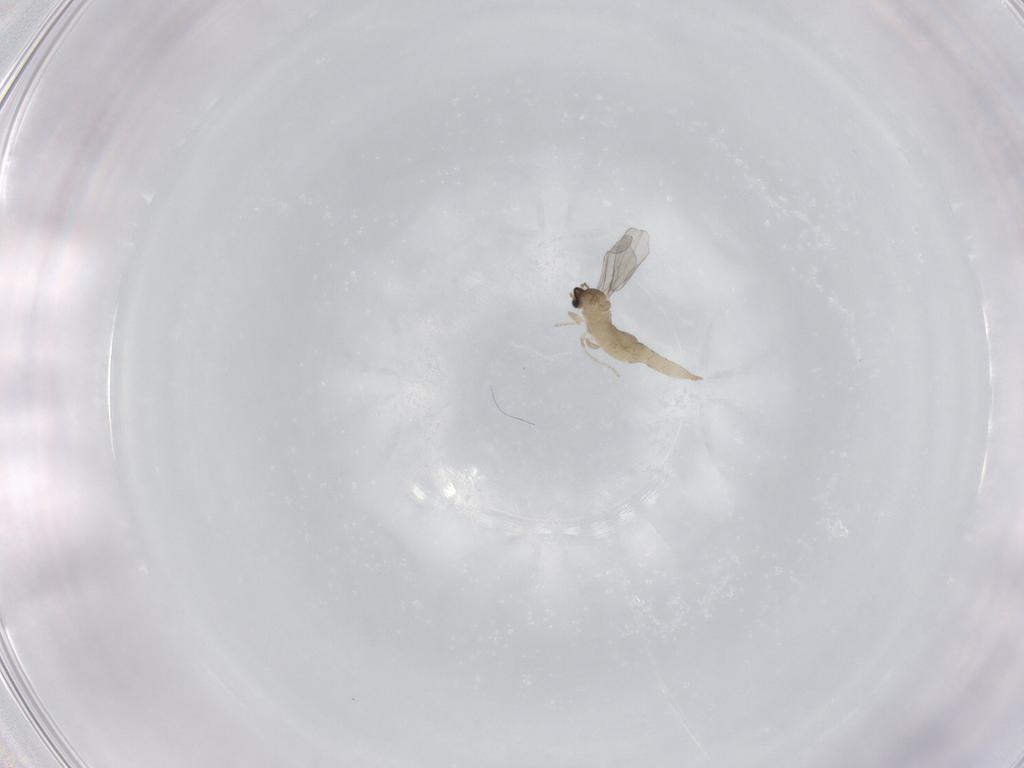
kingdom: Animalia
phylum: Arthropoda
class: Insecta
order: Diptera
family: Cecidomyiidae
